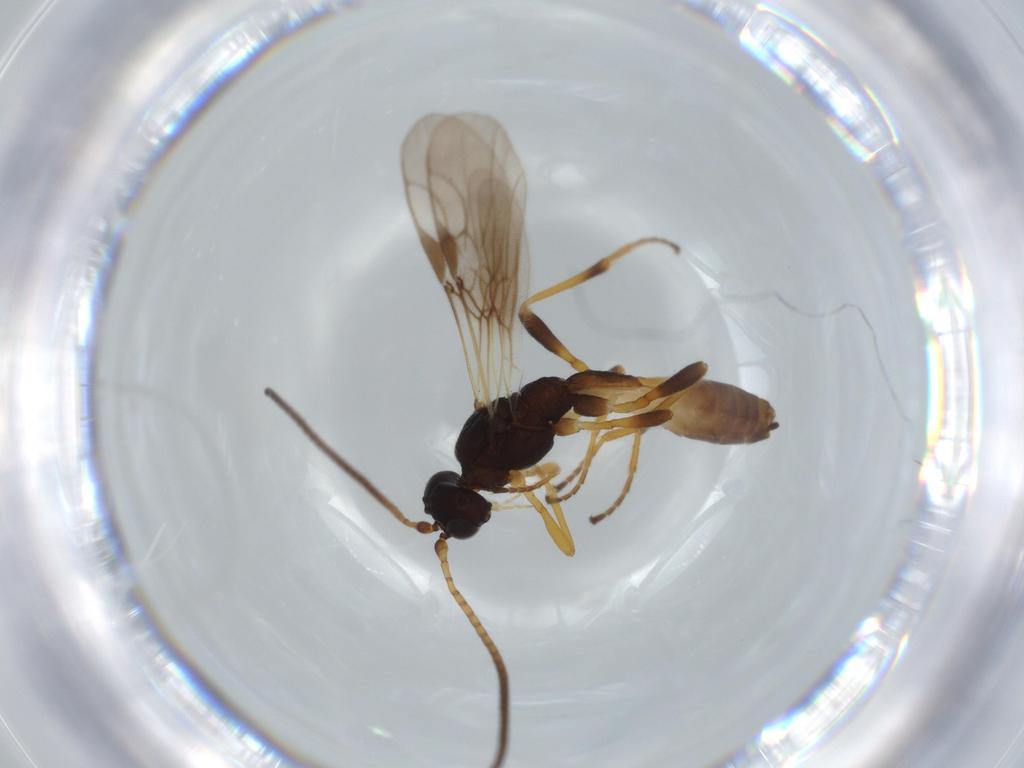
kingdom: Animalia
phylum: Arthropoda
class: Insecta
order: Hymenoptera
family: Braconidae
